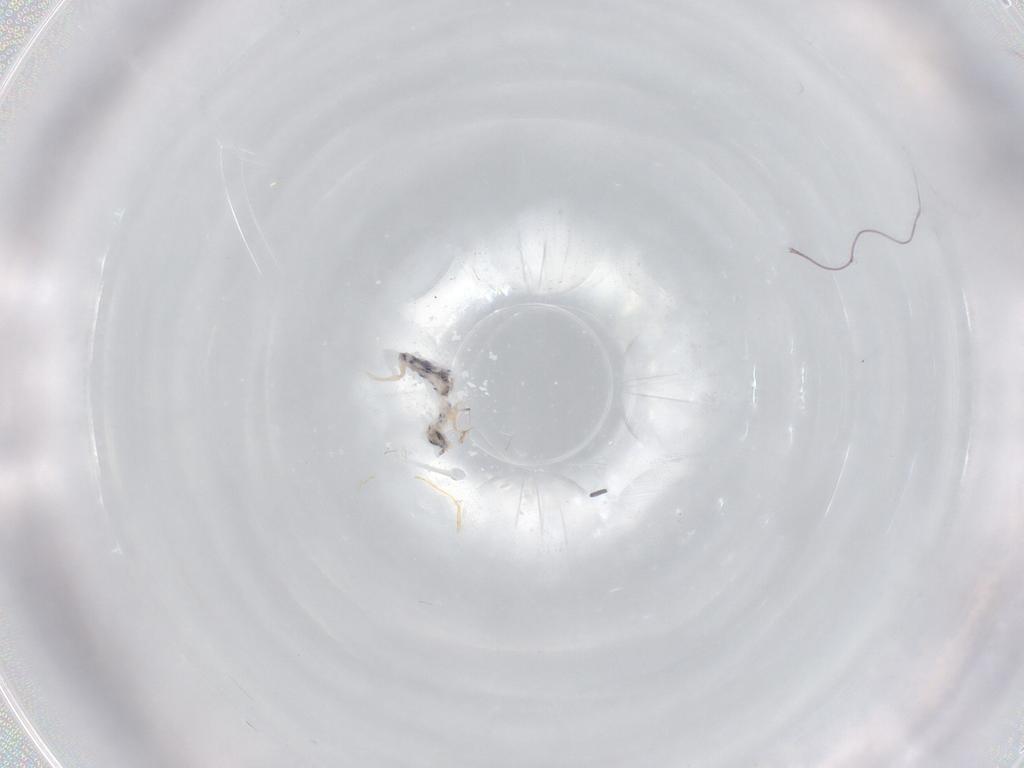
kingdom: Animalia
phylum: Arthropoda
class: Collembola
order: Entomobryomorpha
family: Entomobryidae
